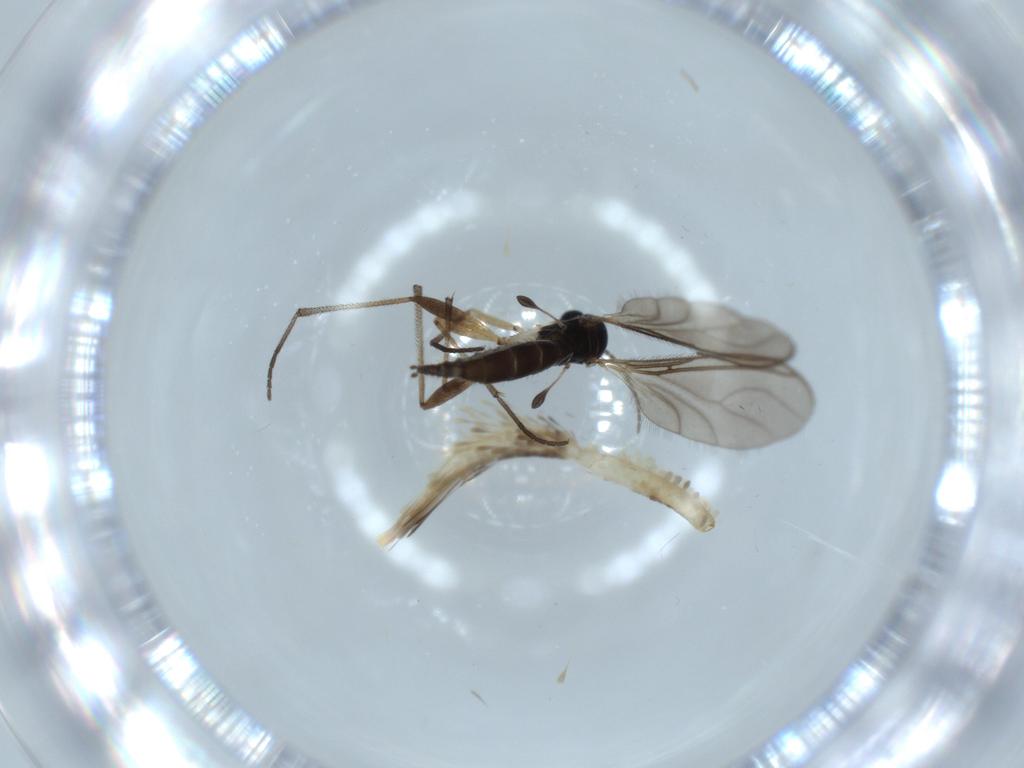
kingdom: Animalia
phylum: Arthropoda
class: Insecta
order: Diptera
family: Sciaridae
